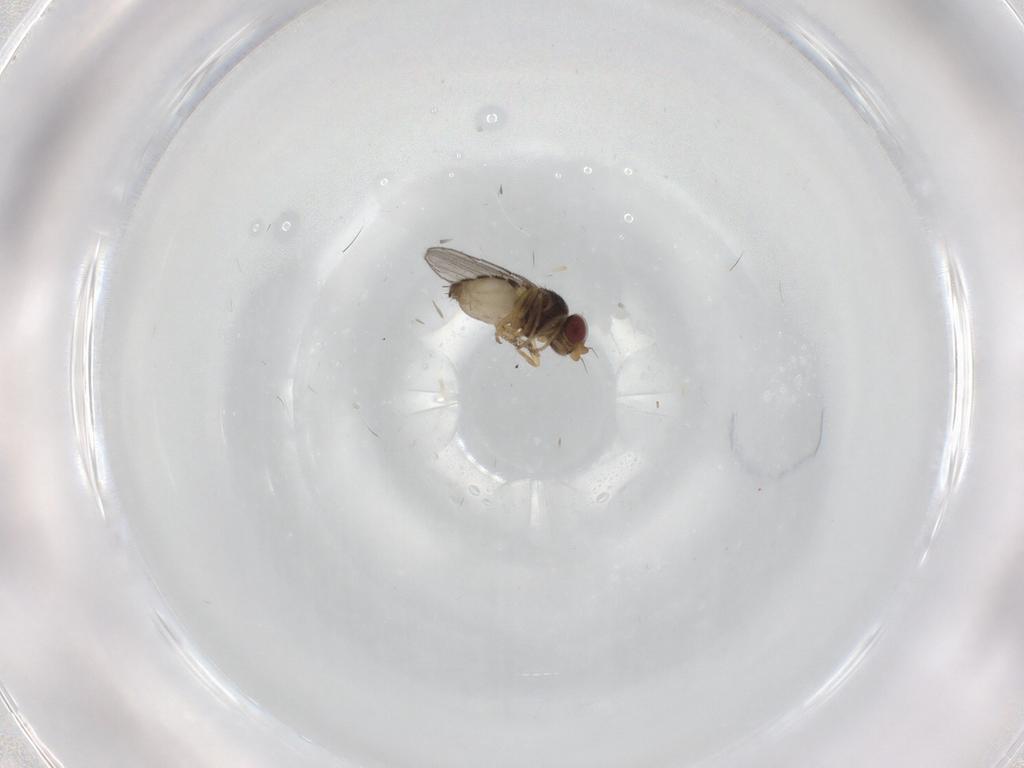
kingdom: Animalia
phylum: Arthropoda
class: Insecta
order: Diptera
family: Chloropidae
